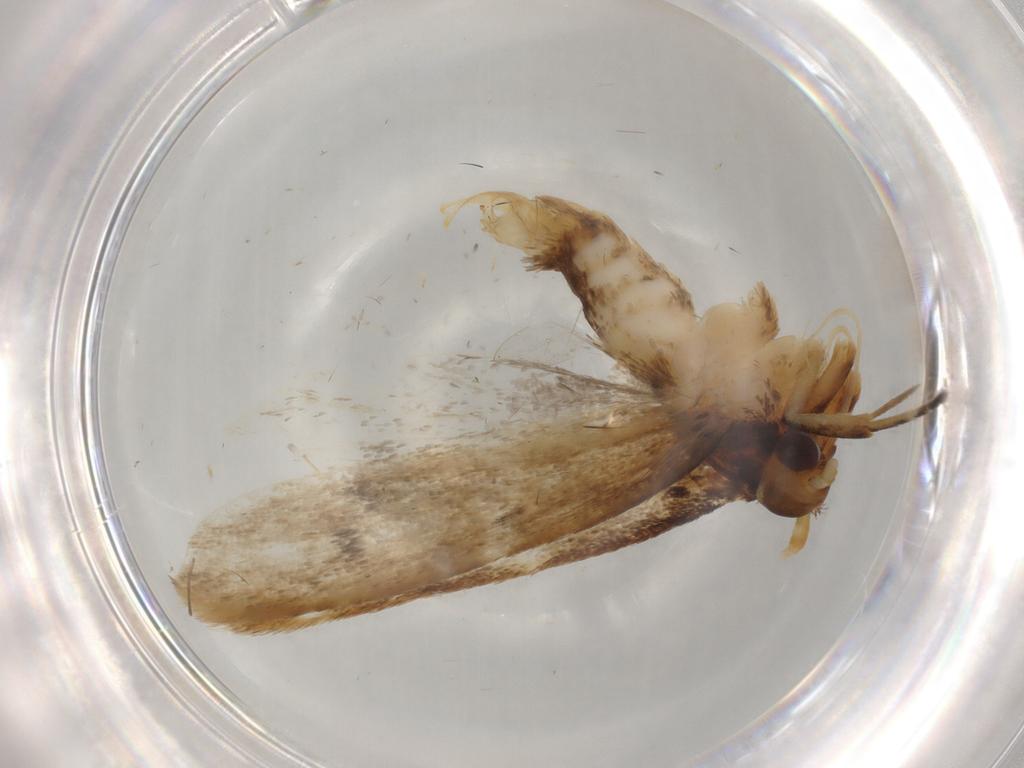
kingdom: Animalia
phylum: Arthropoda
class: Insecta
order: Lepidoptera
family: Lecithoceridae
